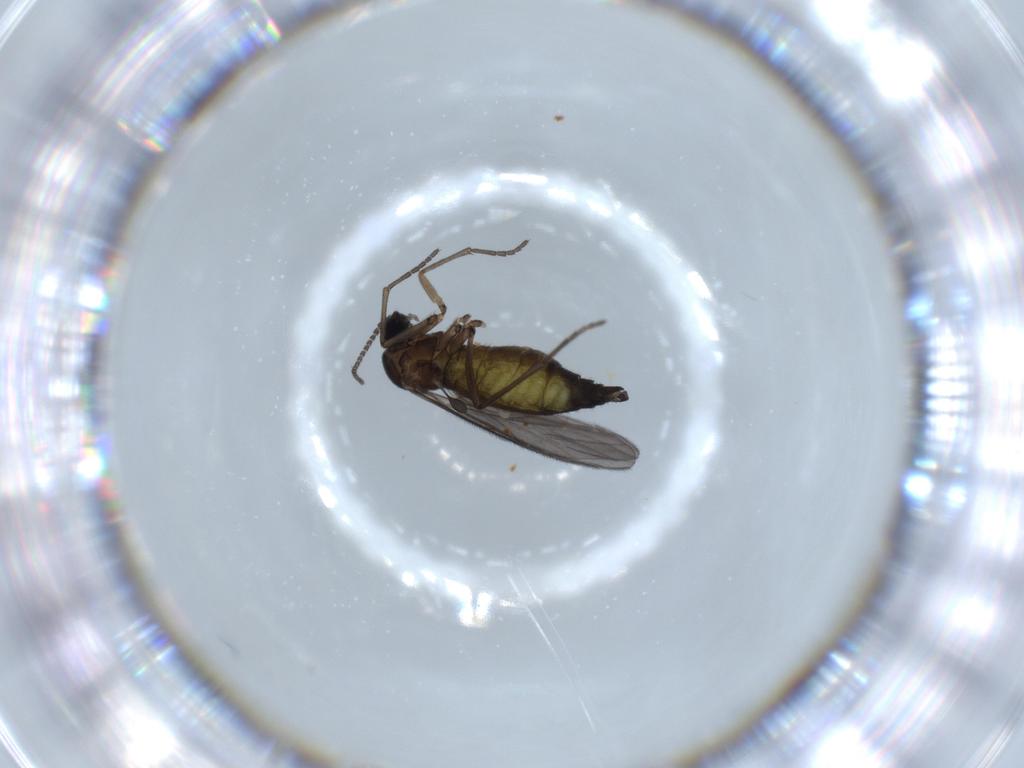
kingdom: Animalia
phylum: Arthropoda
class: Insecta
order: Diptera
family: Sciaridae
